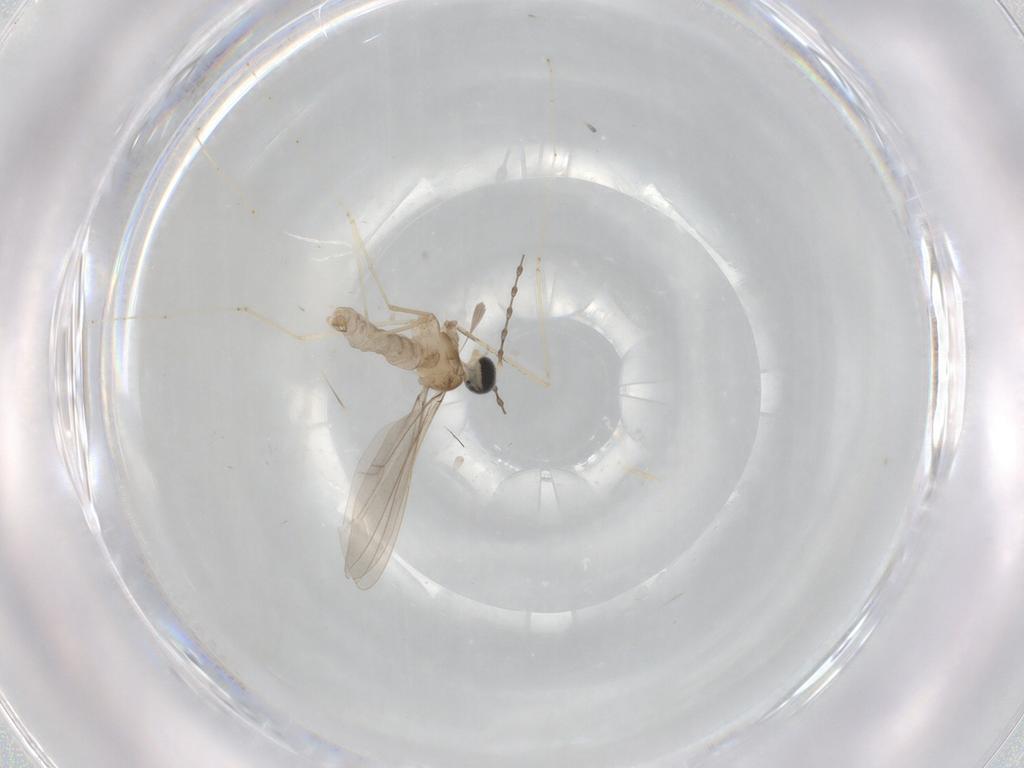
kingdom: Animalia
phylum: Arthropoda
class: Insecta
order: Diptera
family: Cecidomyiidae
